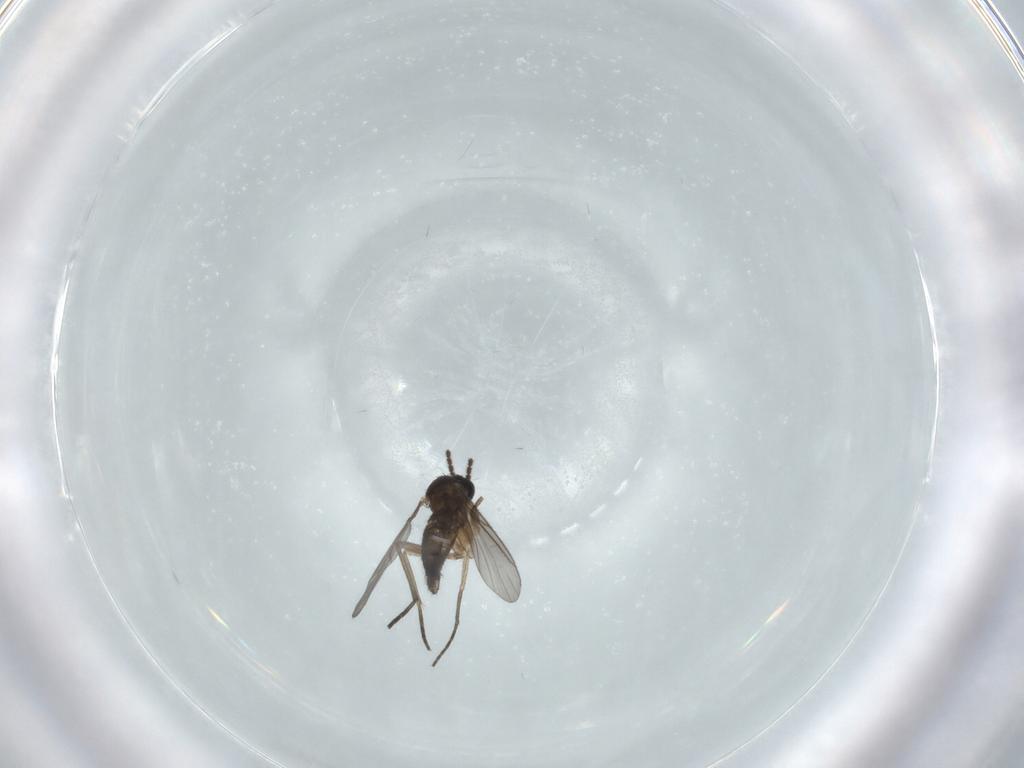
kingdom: Animalia
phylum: Arthropoda
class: Insecta
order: Diptera
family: Sciaridae
